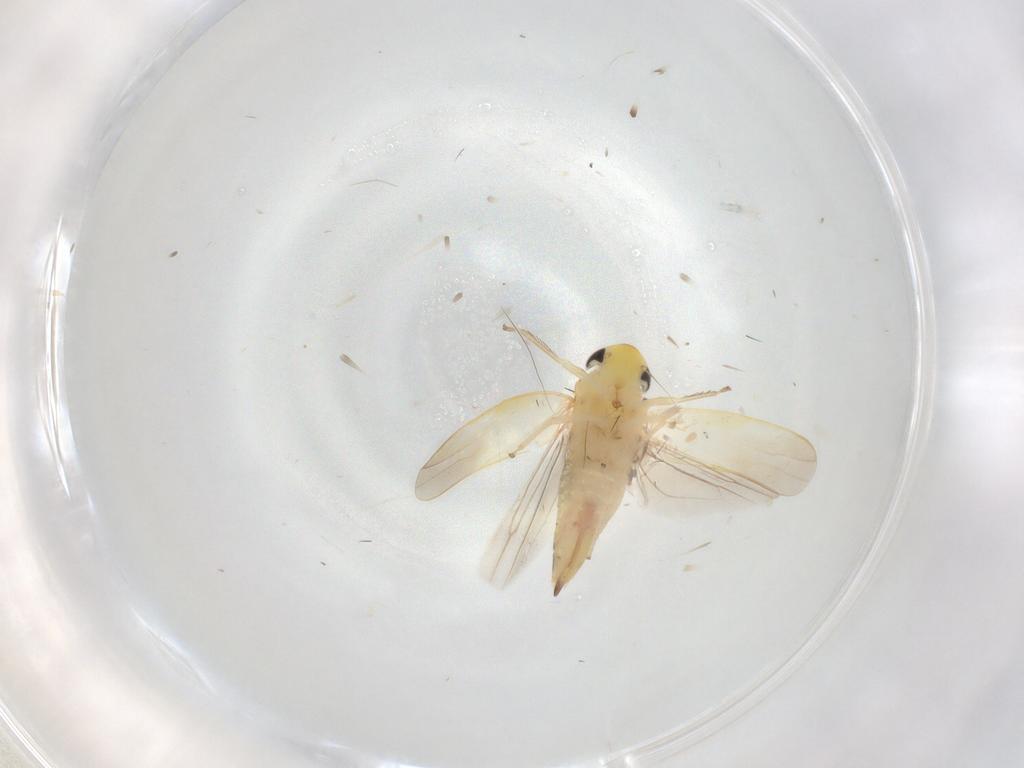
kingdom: Animalia
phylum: Arthropoda
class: Insecta
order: Hemiptera
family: Cicadellidae
